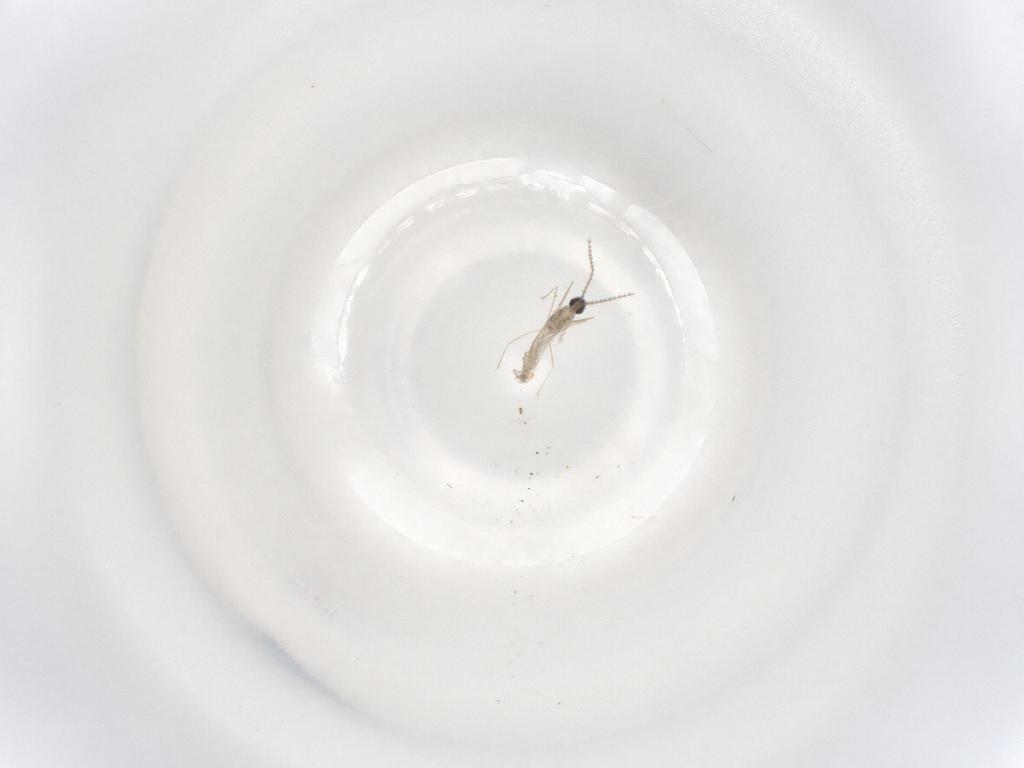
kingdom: Animalia
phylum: Arthropoda
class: Insecta
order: Diptera
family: Cecidomyiidae
